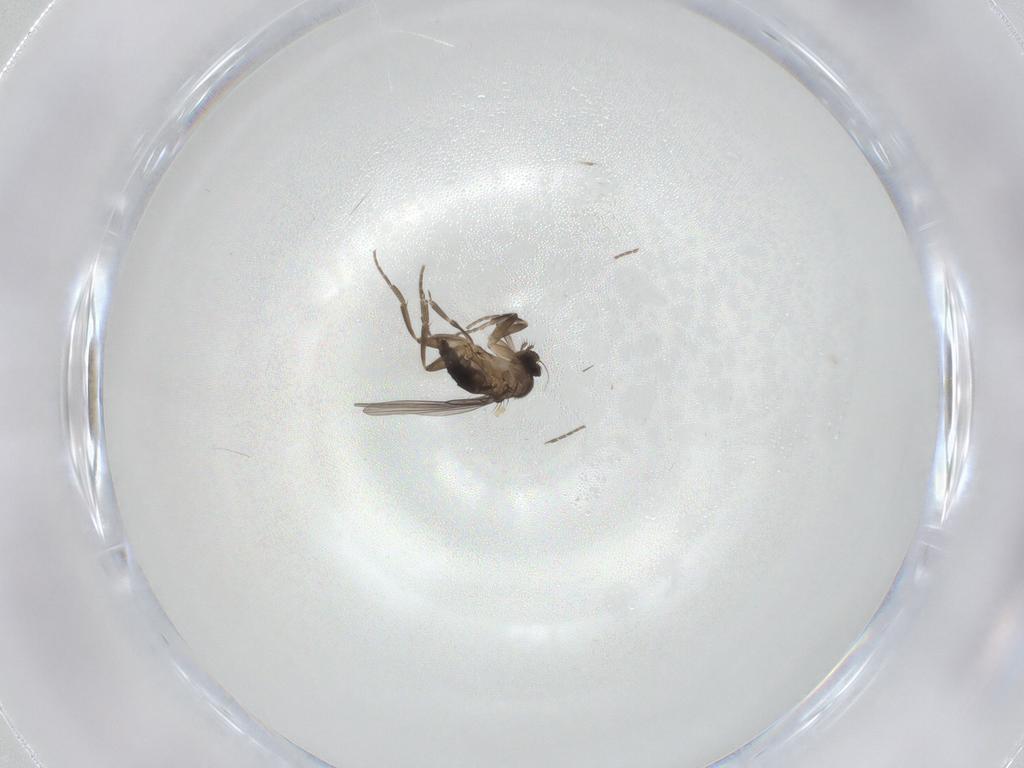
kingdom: Animalia
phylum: Arthropoda
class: Insecta
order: Diptera
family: Phoridae
